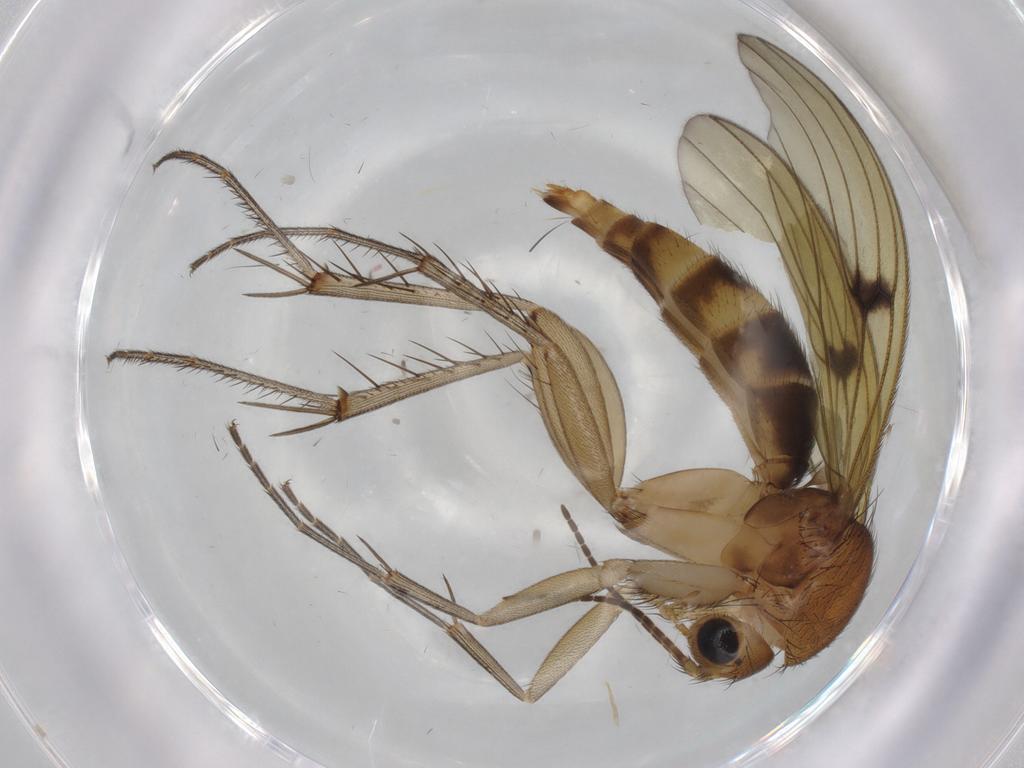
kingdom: Animalia
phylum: Arthropoda
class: Insecta
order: Diptera
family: Mycetophilidae
